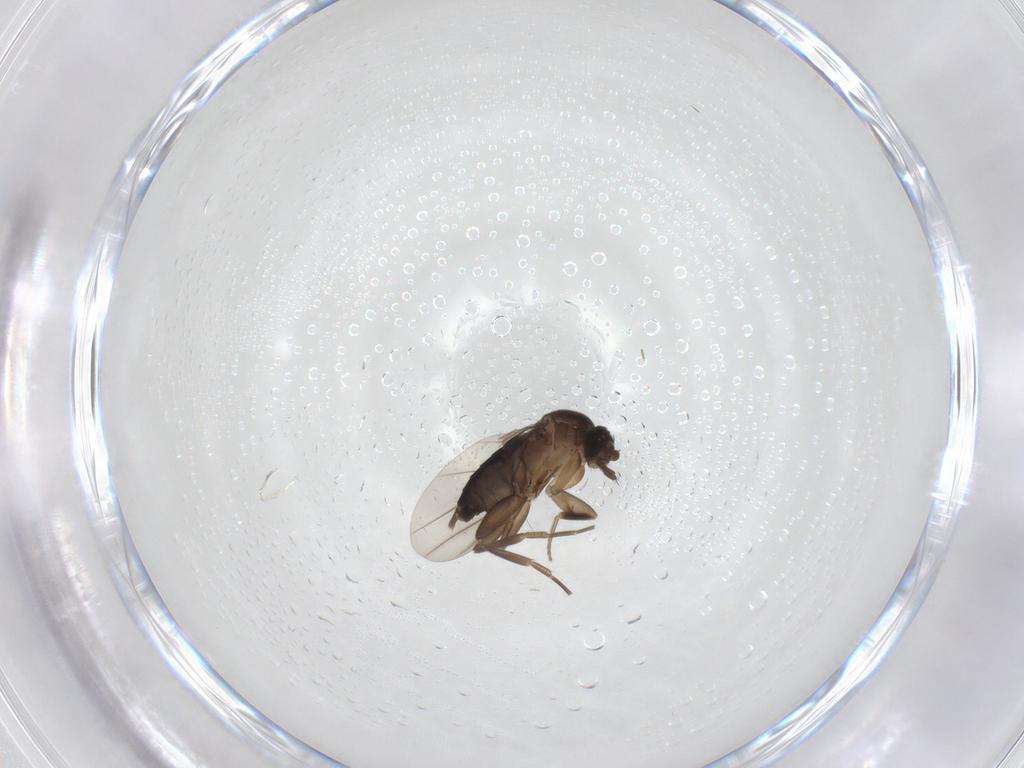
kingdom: Animalia
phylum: Arthropoda
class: Insecta
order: Diptera
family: Phoridae
